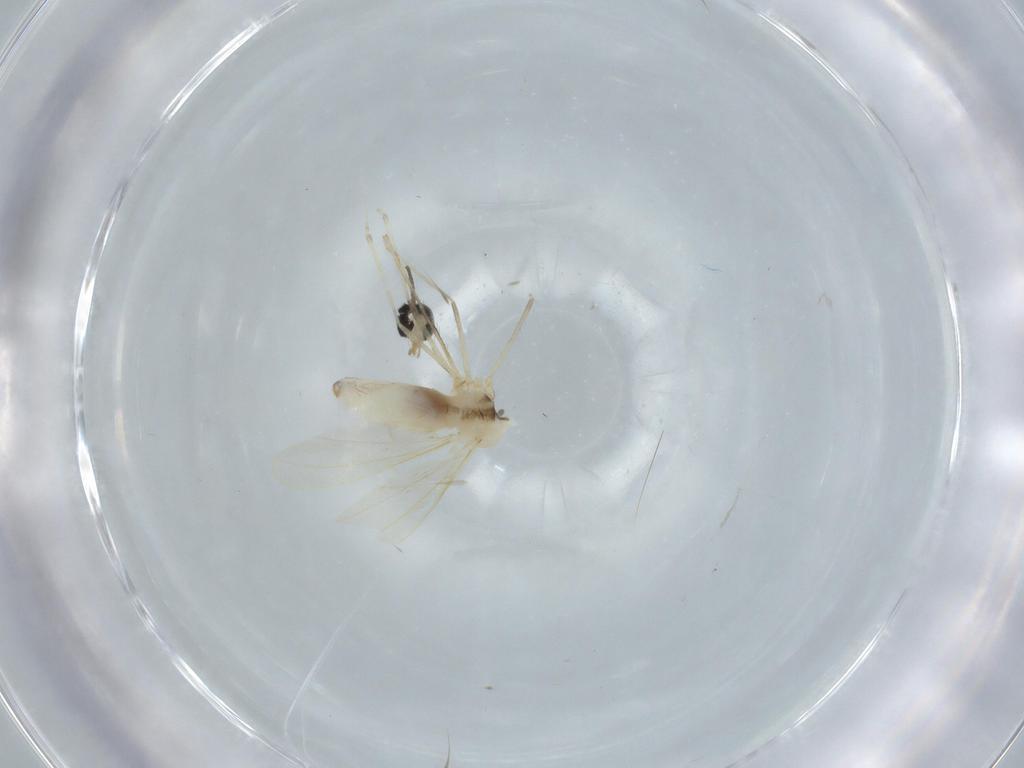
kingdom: Animalia
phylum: Arthropoda
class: Insecta
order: Diptera
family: Cecidomyiidae
